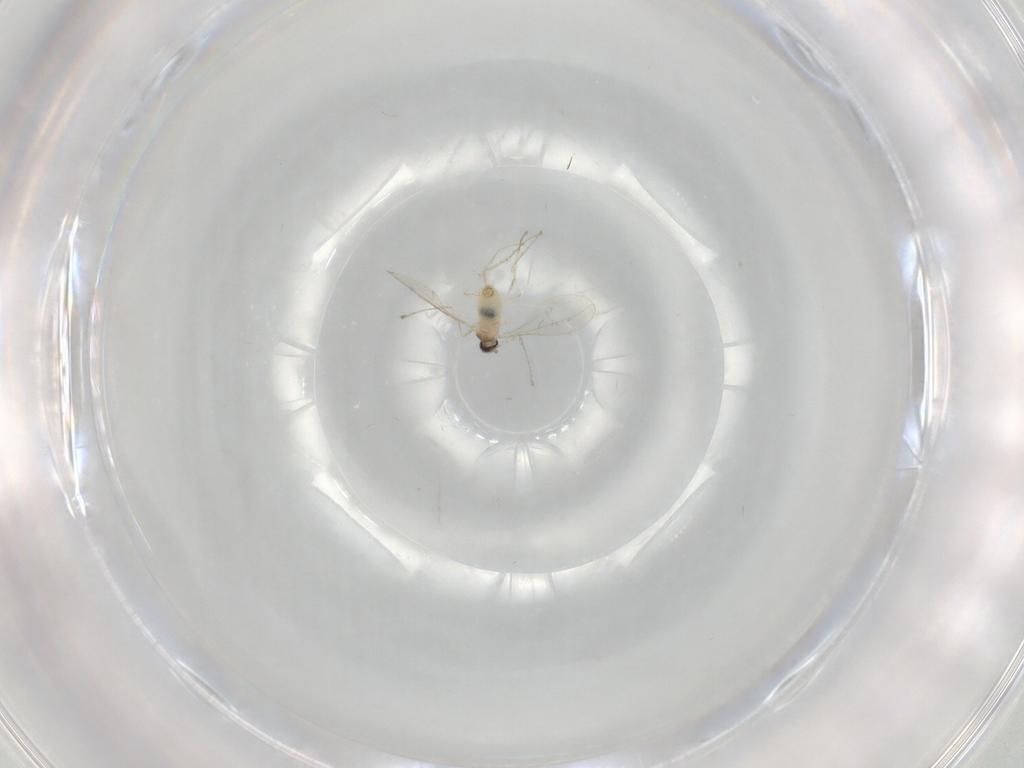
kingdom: Animalia
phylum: Arthropoda
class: Insecta
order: Diptera
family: Cecidomyiidae
